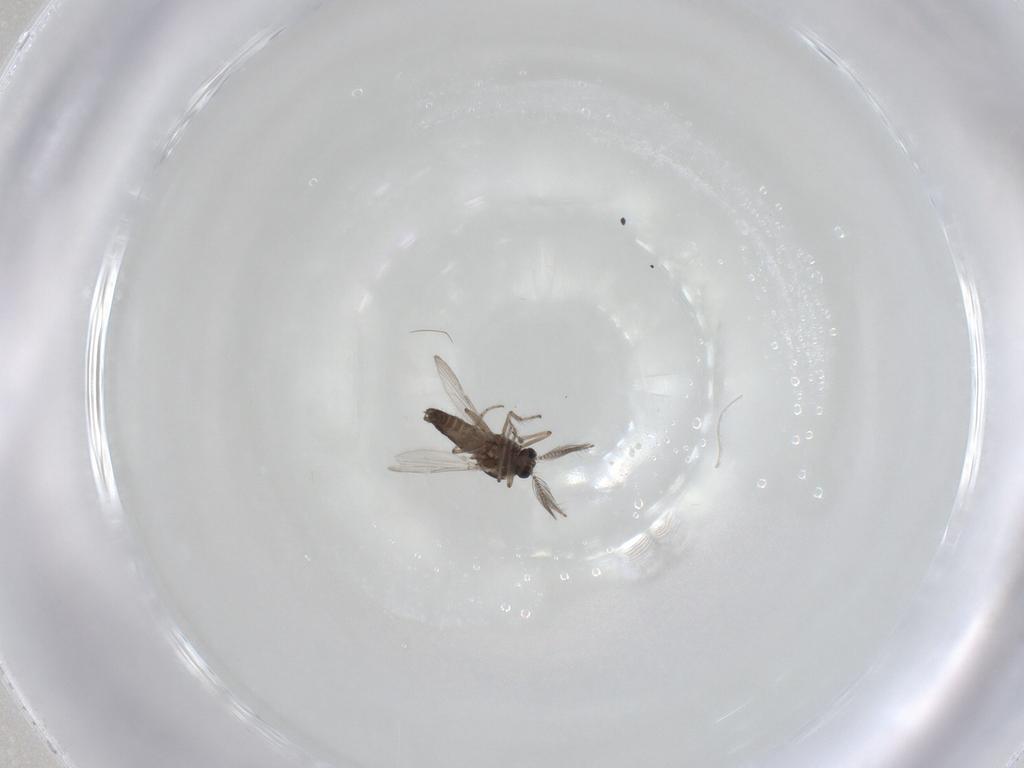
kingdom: Animalia
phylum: Arthropoda
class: Insecta
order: Diptera
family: Ceratopogonidae
